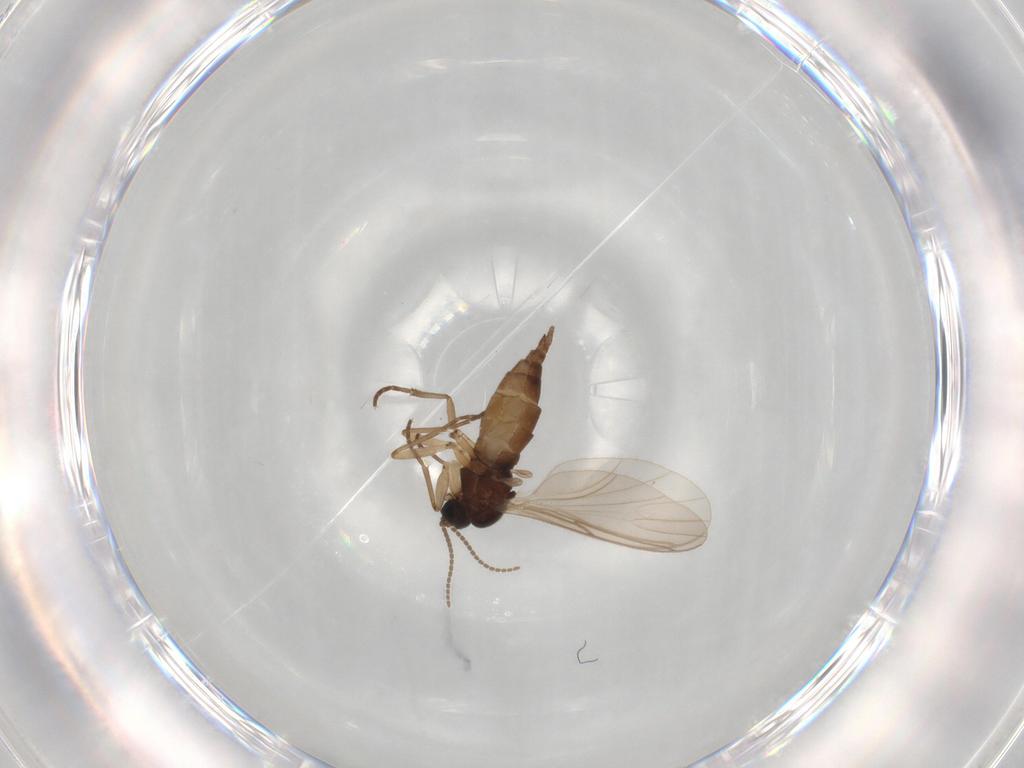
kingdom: Animalia
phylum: Arthropoda
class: Insecta
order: Diptera
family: Sciaridae
